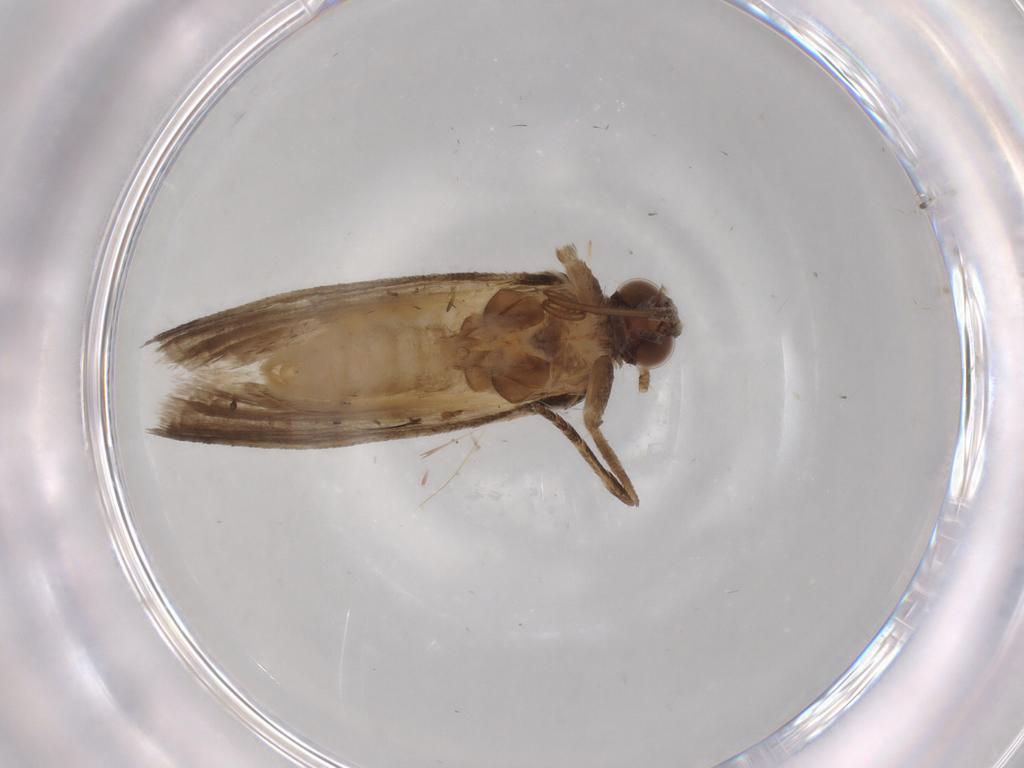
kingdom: Animalia
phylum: Arthropoda
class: Insecta
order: Lepidoptera
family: Noctuidae
